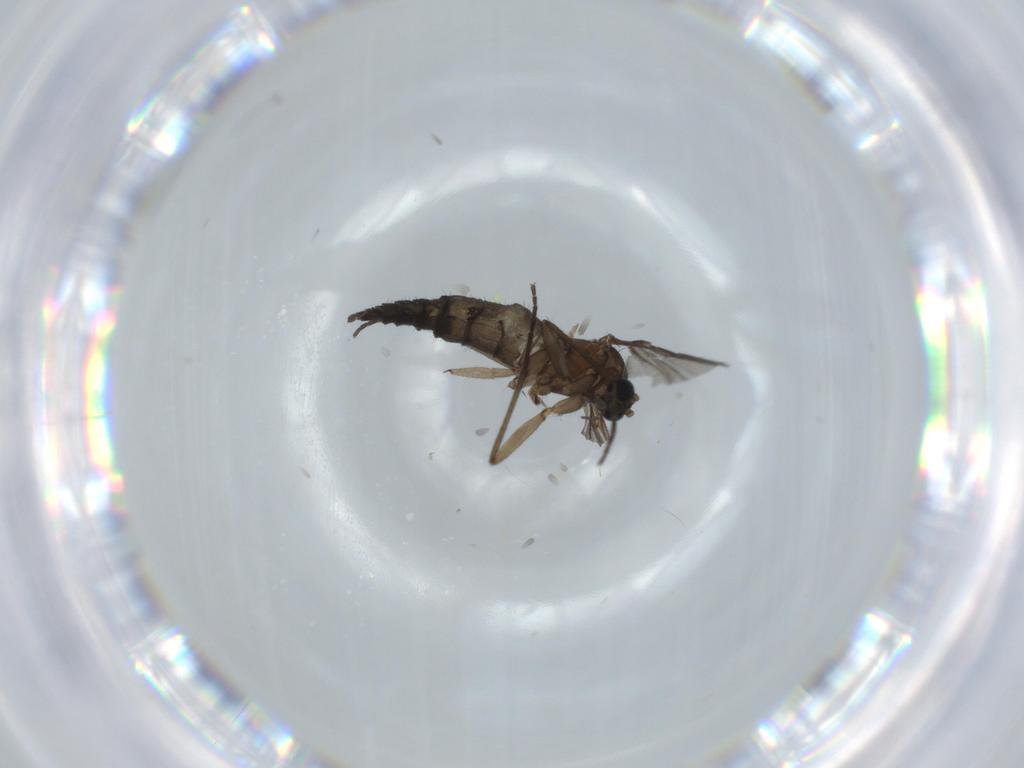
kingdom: Animalia
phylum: Arthropoda
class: Insecta
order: Diptera
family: Sciaridae
